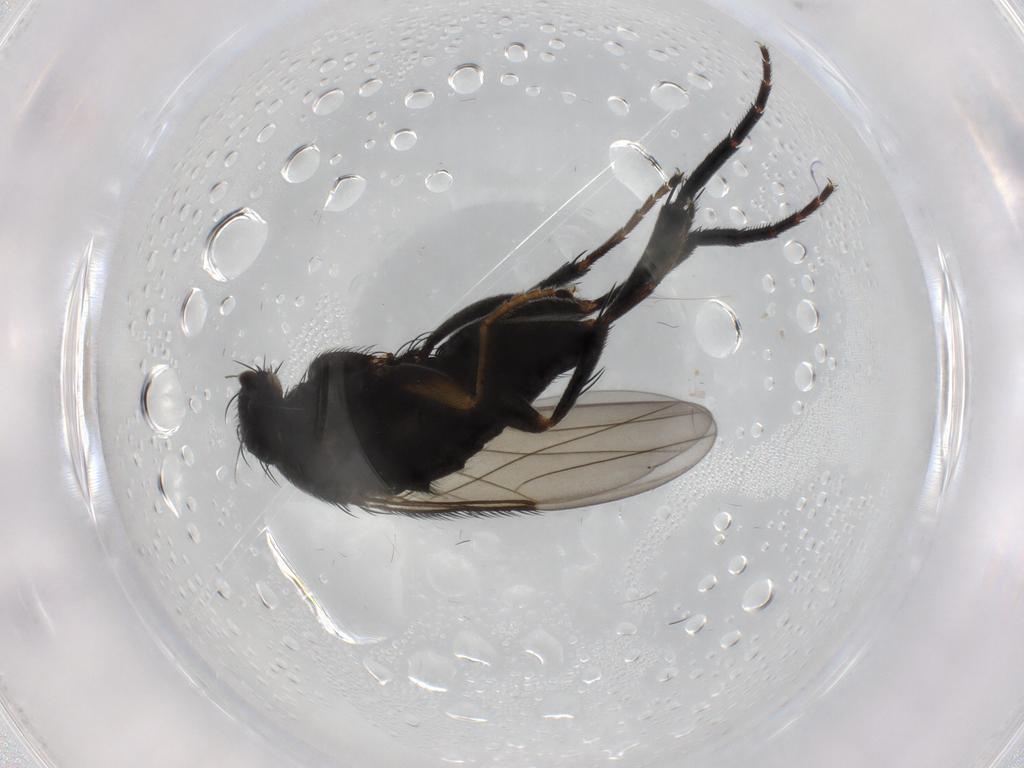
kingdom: Animalia
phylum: Arthropoda
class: Insecta
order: Diptera
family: Phoridae
